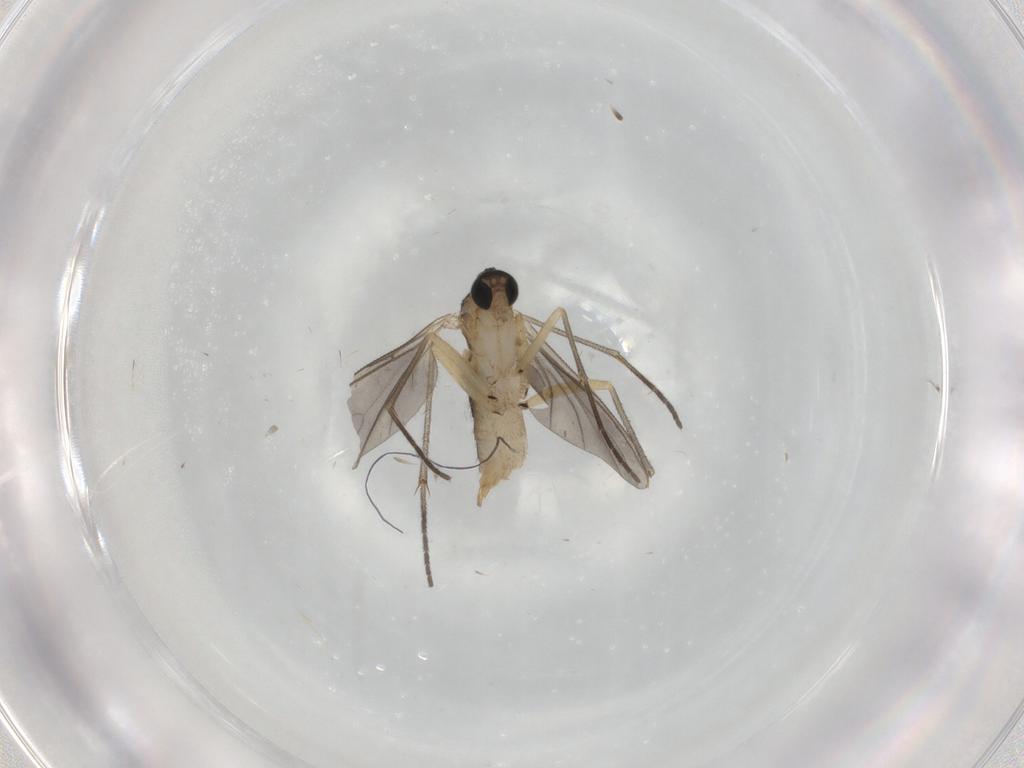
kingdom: Animalia
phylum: Arthropoda
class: Insecta
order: Diptera
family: Sciaridae
